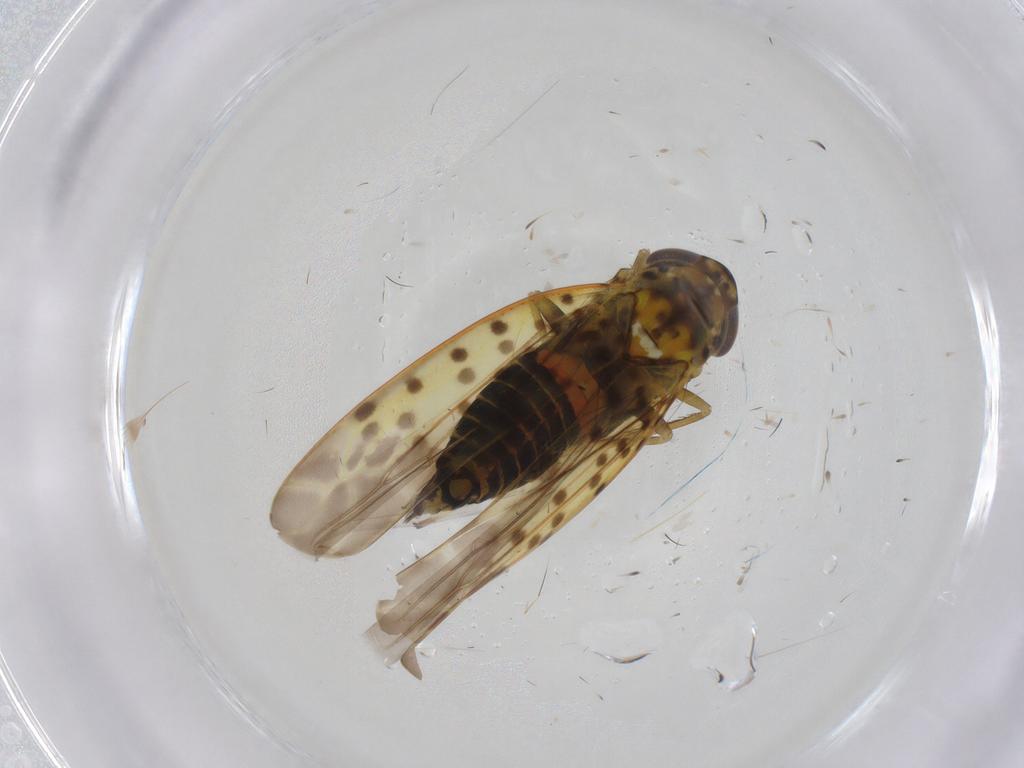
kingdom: Animalia
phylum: Arthropoda
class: Insecta
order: Hemiptera
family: Cicadellidae
